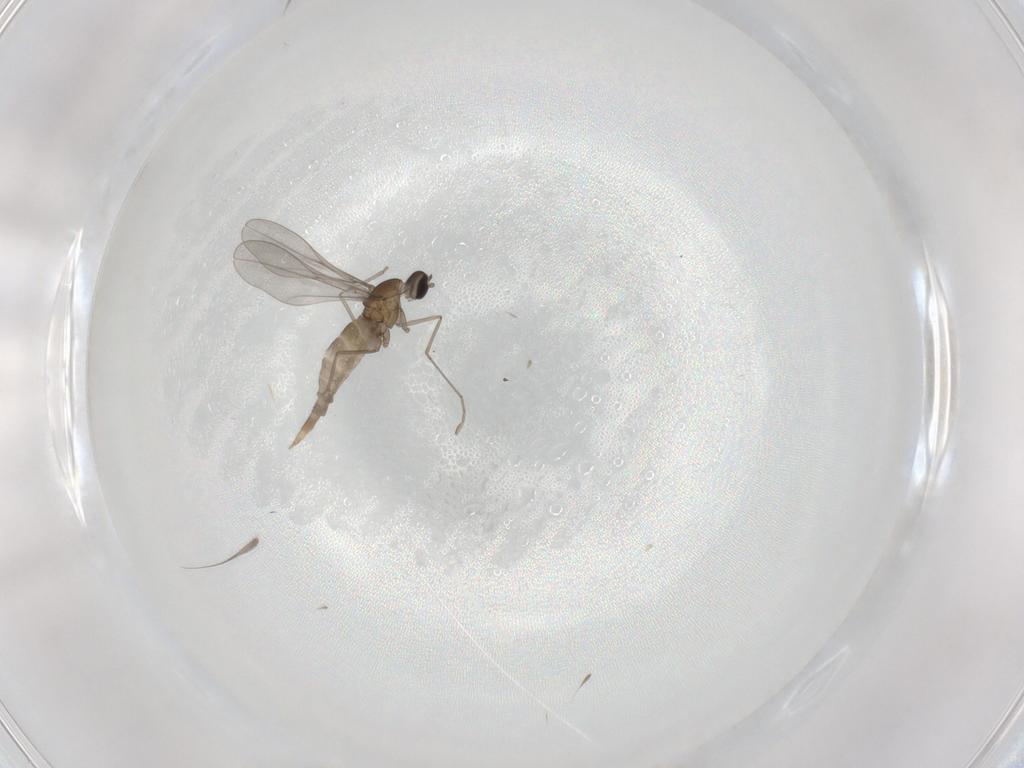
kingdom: Animalia
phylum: Arthropoda
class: Insecta
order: Diptera
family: Cecidomyiidae
